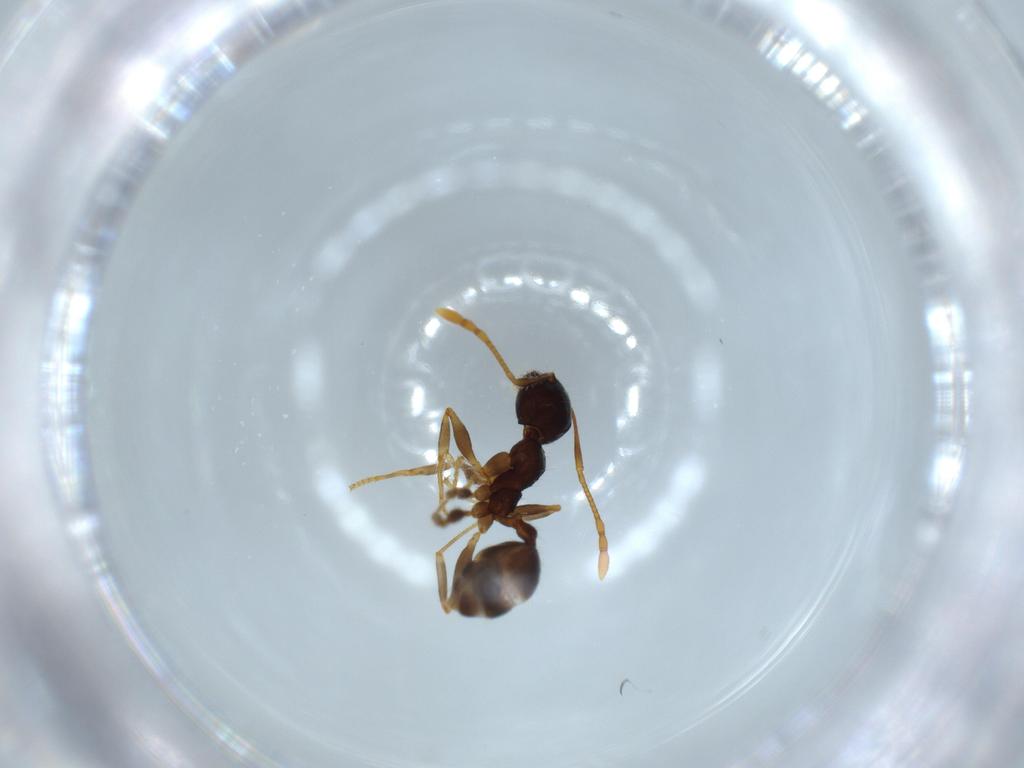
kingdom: Animalia
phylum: Arthropoda
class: Insecta
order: Hymenoptera
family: Formicidae
